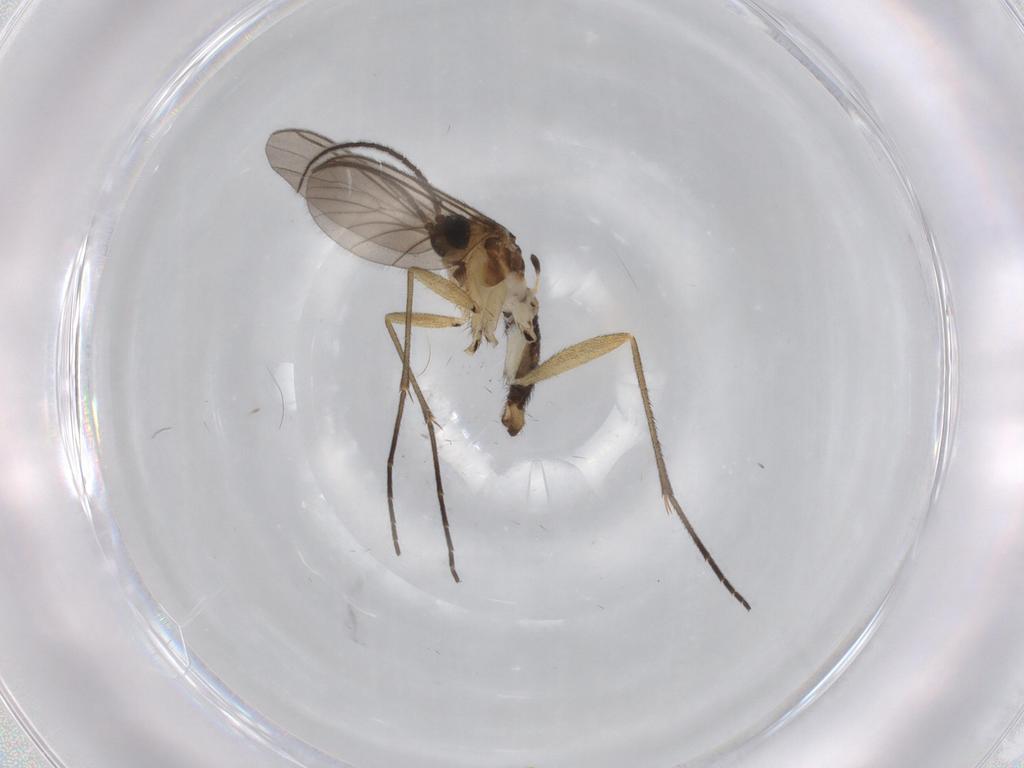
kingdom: Animalia
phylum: Arthropoda
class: Insecta
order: Diptera
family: Sciaridae
